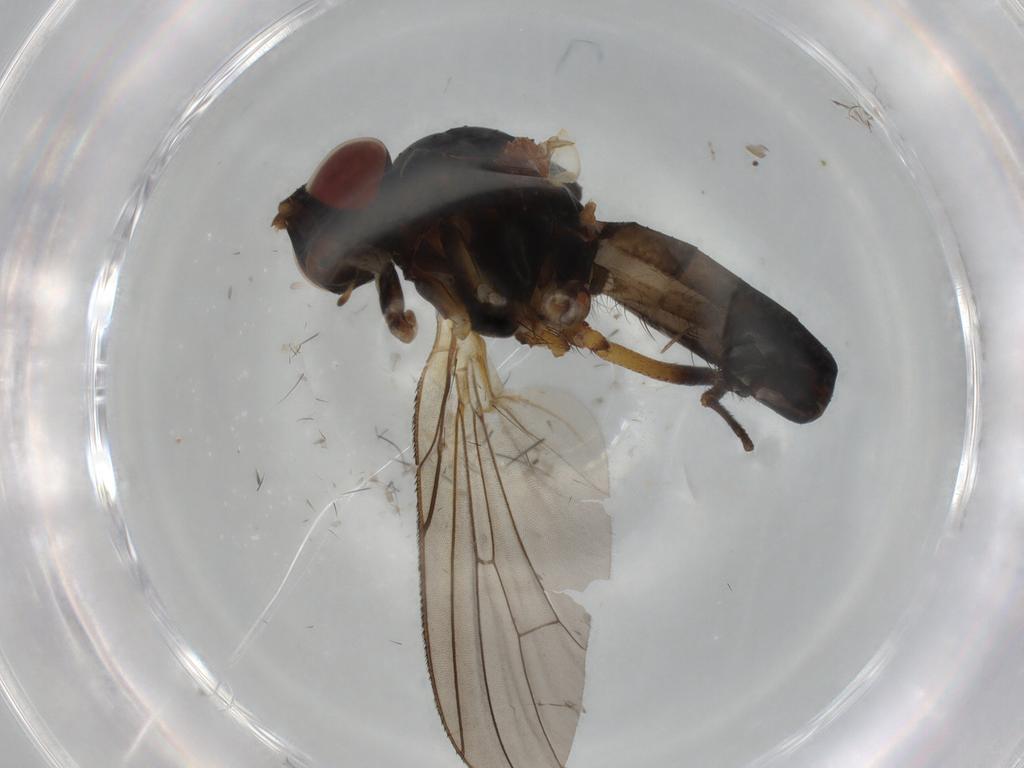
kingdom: Animalia
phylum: Arthropoda
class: Insecta
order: Diptera
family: Anthomyiidae
